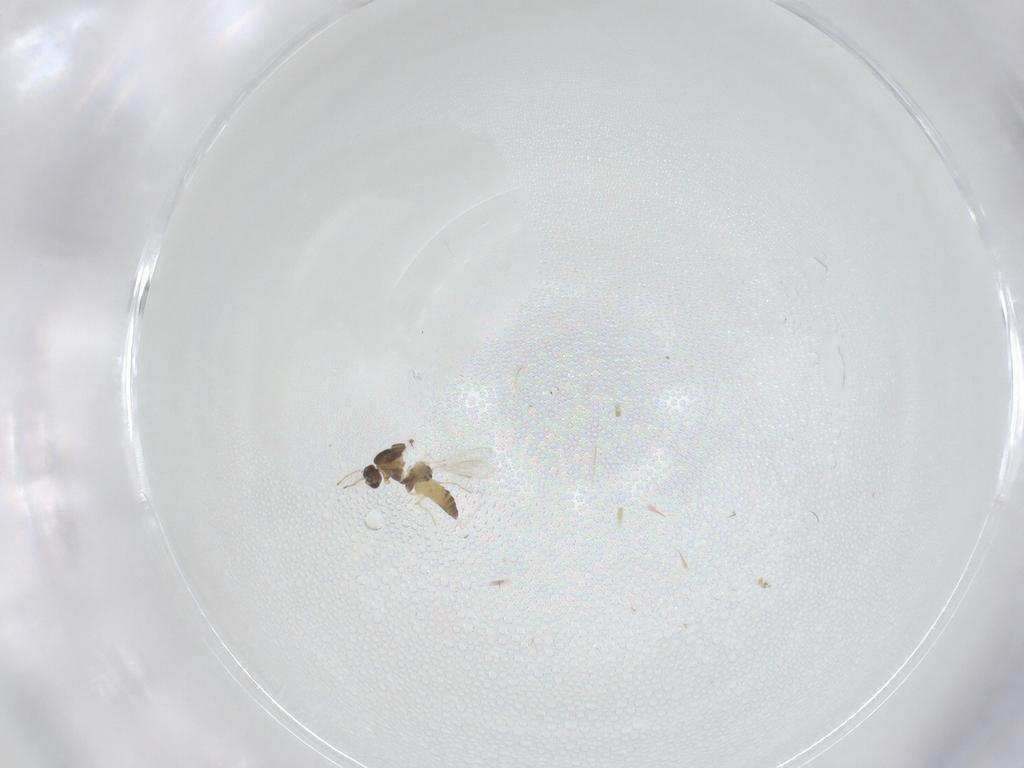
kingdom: Animalia
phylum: Arthropoda
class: Insecta
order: Diptera
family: Chironomidae
